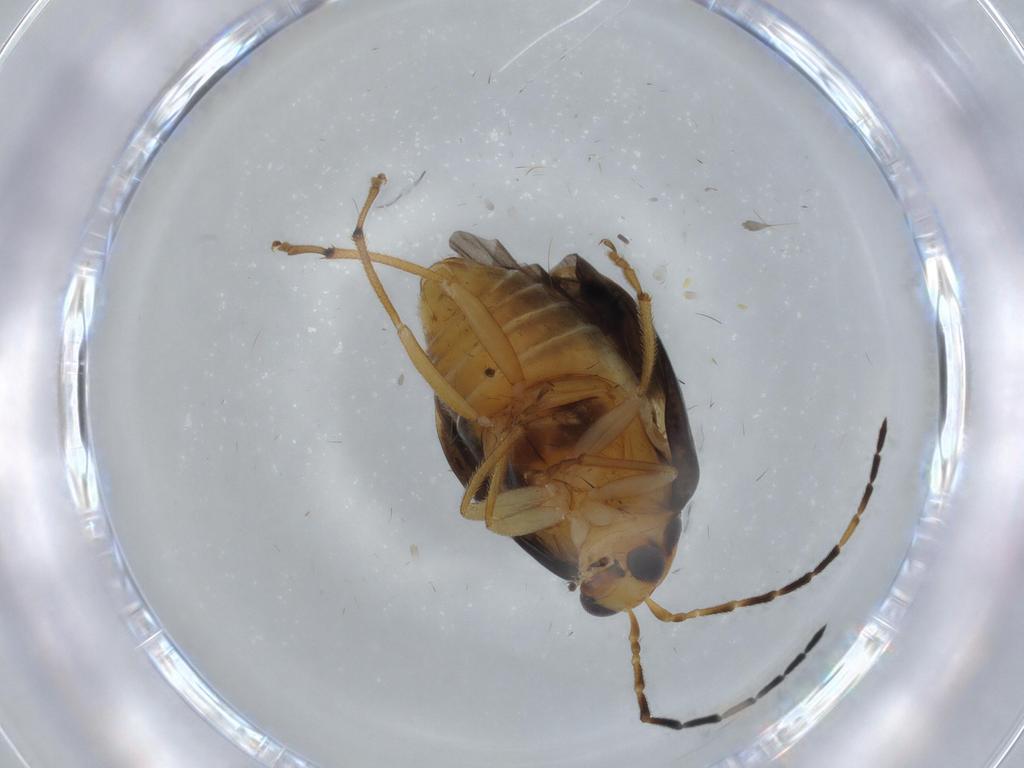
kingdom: Animalia
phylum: Arthropoda
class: Insecta
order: Coleoptera
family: Chrysomelidae
